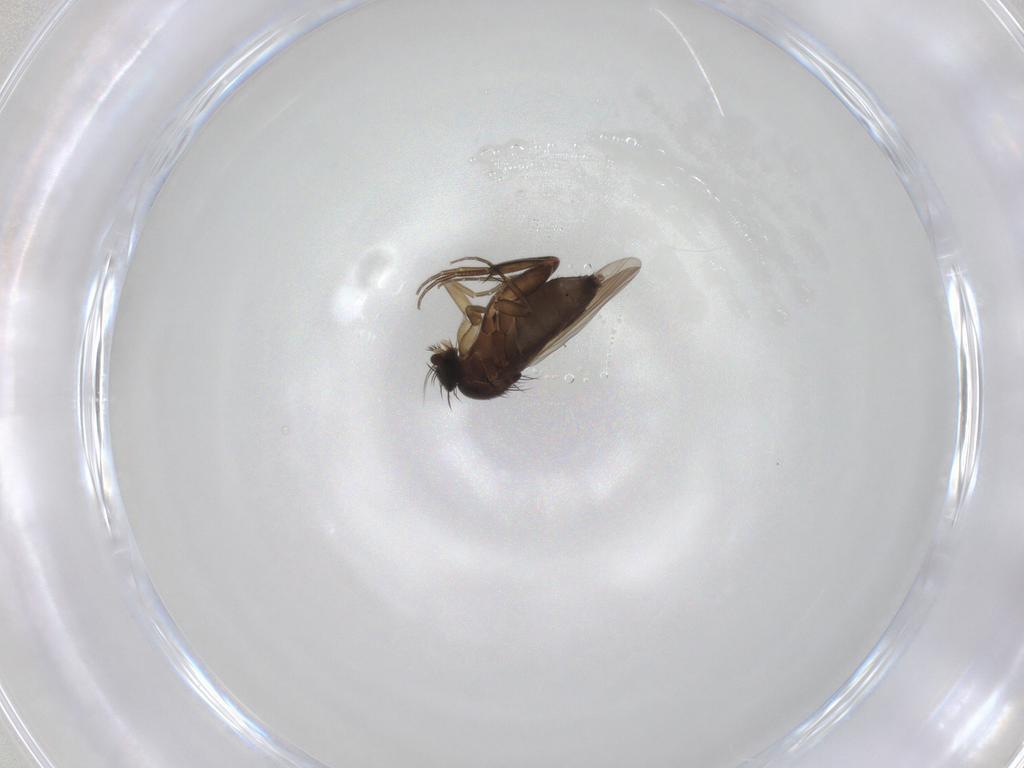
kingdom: Animalia
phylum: Arthropoda
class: Insecta
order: Diptera
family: Phoridae
